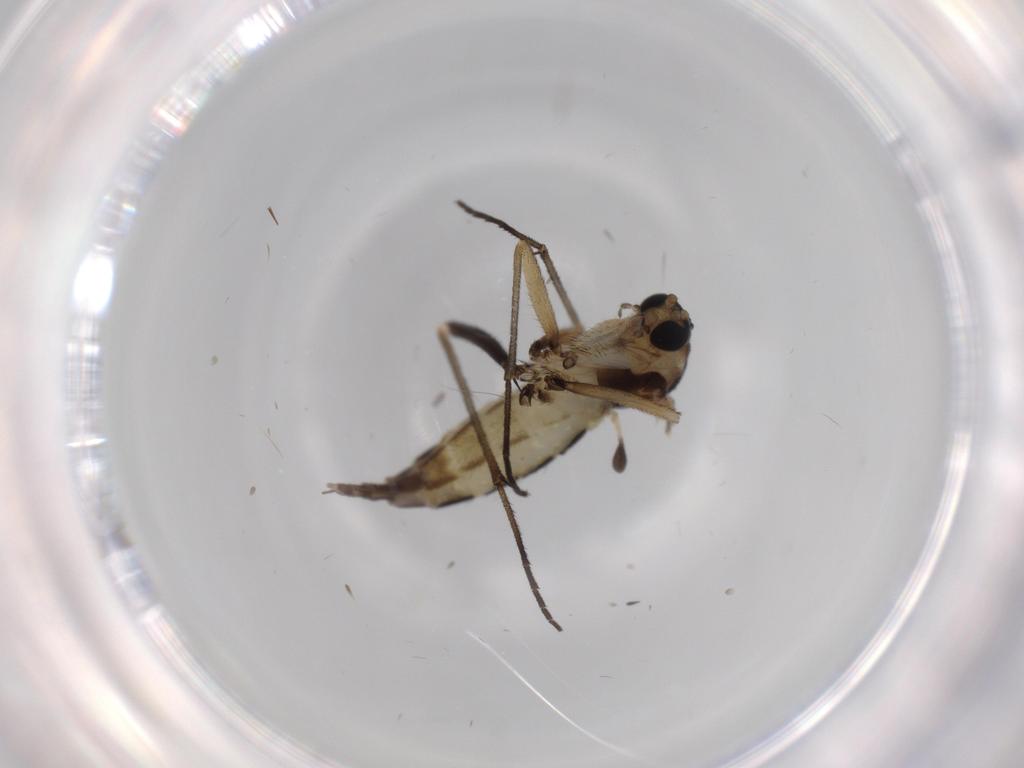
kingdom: Animalia
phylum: Arthropoda
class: Insecta
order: Diptera
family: Sciaridae
